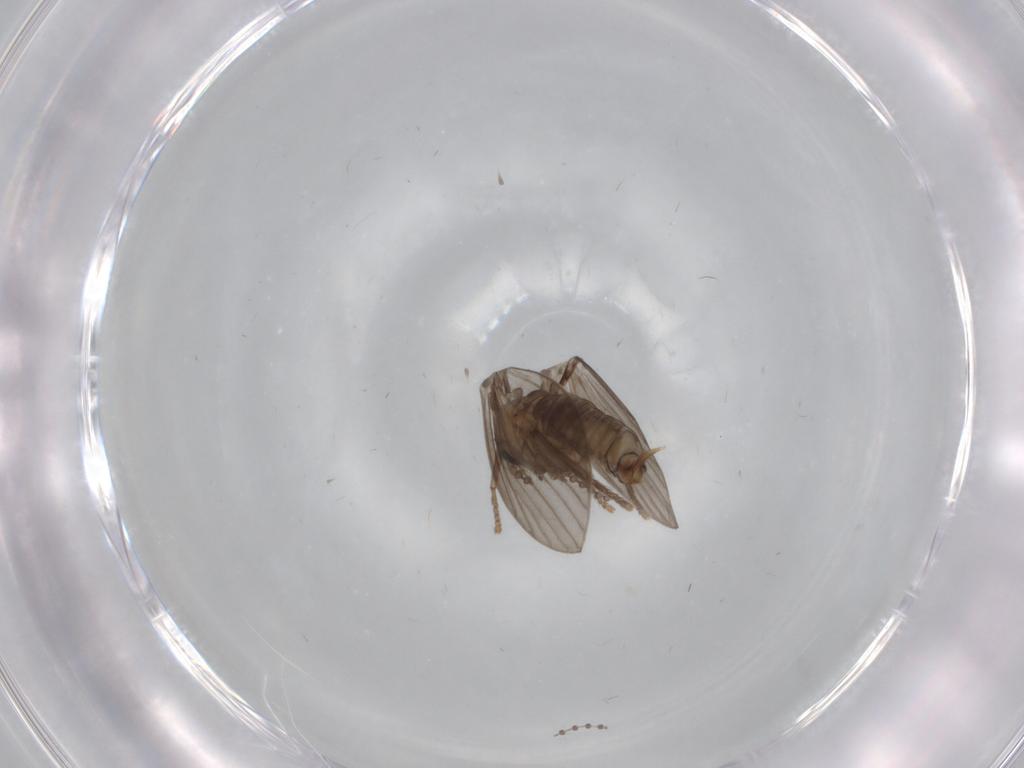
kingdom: Animalia
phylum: Arthropoda
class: Insecta
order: Diptera
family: Psychodidae
